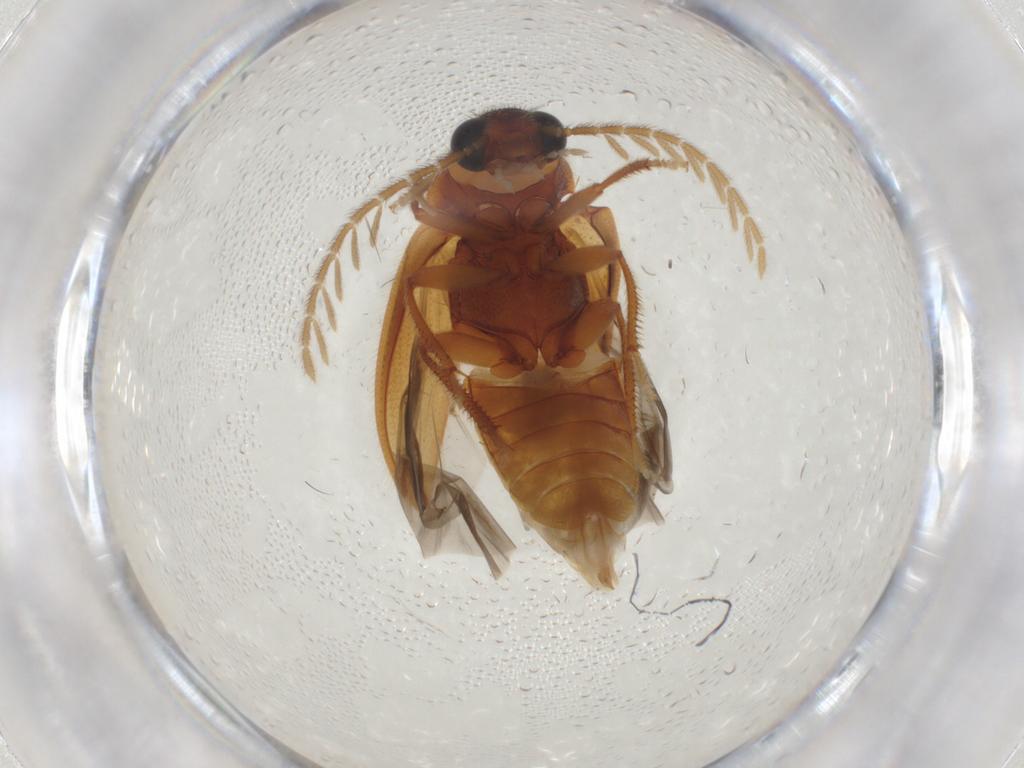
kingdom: Animalia
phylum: Arthropoda
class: Insecta
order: Coleoptera
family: Ptilodactylidae
